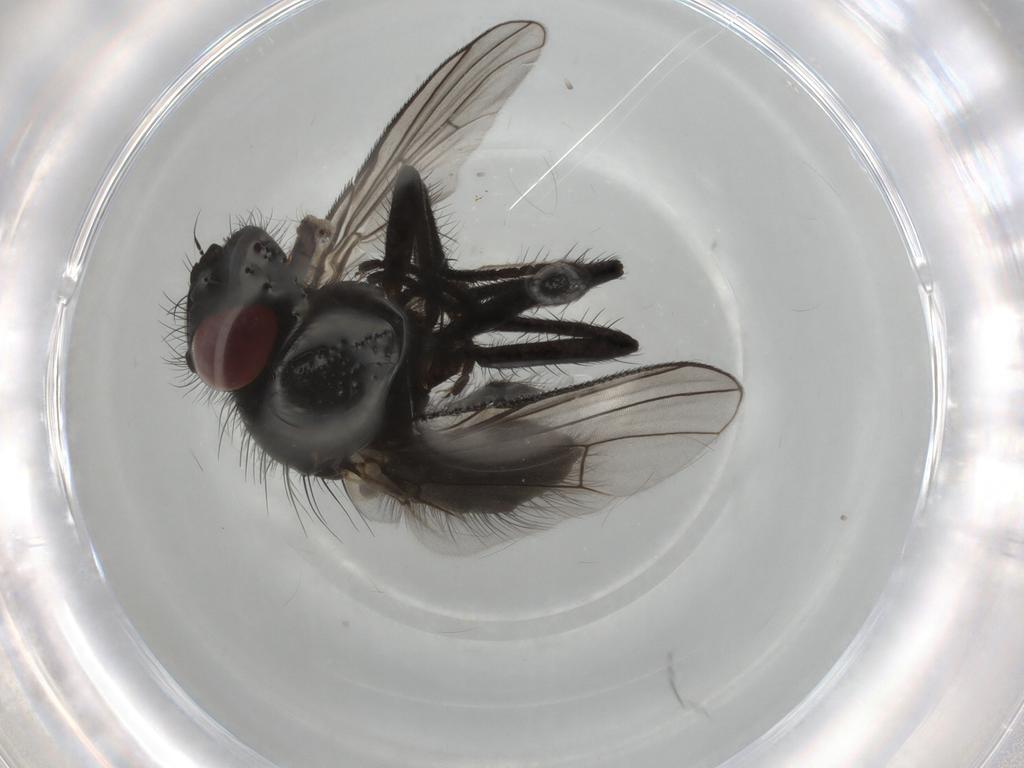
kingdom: Animalia
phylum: Arthropoda
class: Insecta
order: Diptera
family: Muscidae
